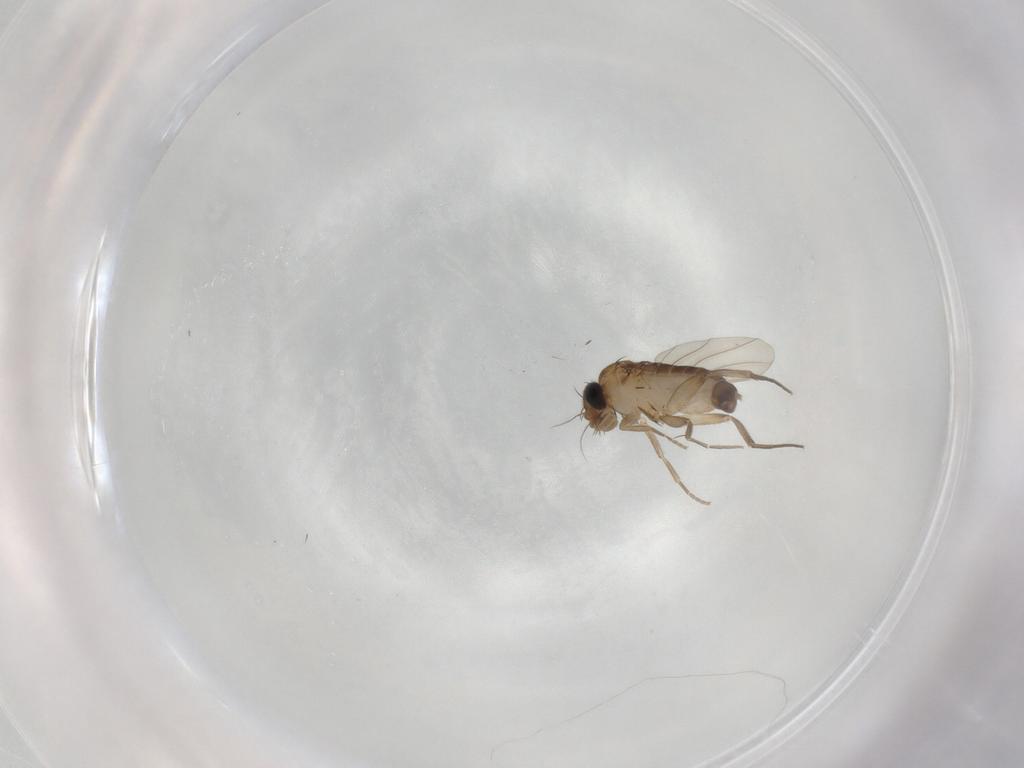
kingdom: Animalia
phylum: Arthropoda
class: Insecta
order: Diptera
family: Phoridae
